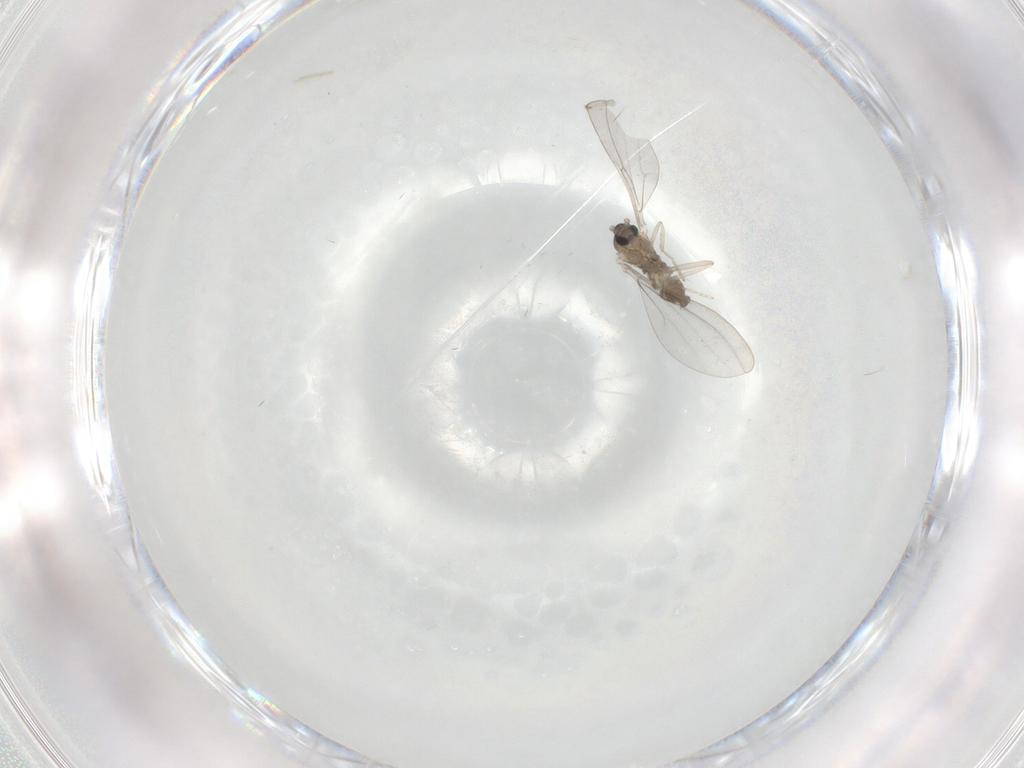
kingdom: Animalia
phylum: Arthropoda
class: Insecta
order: Diptera
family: Cecidomyiidae
